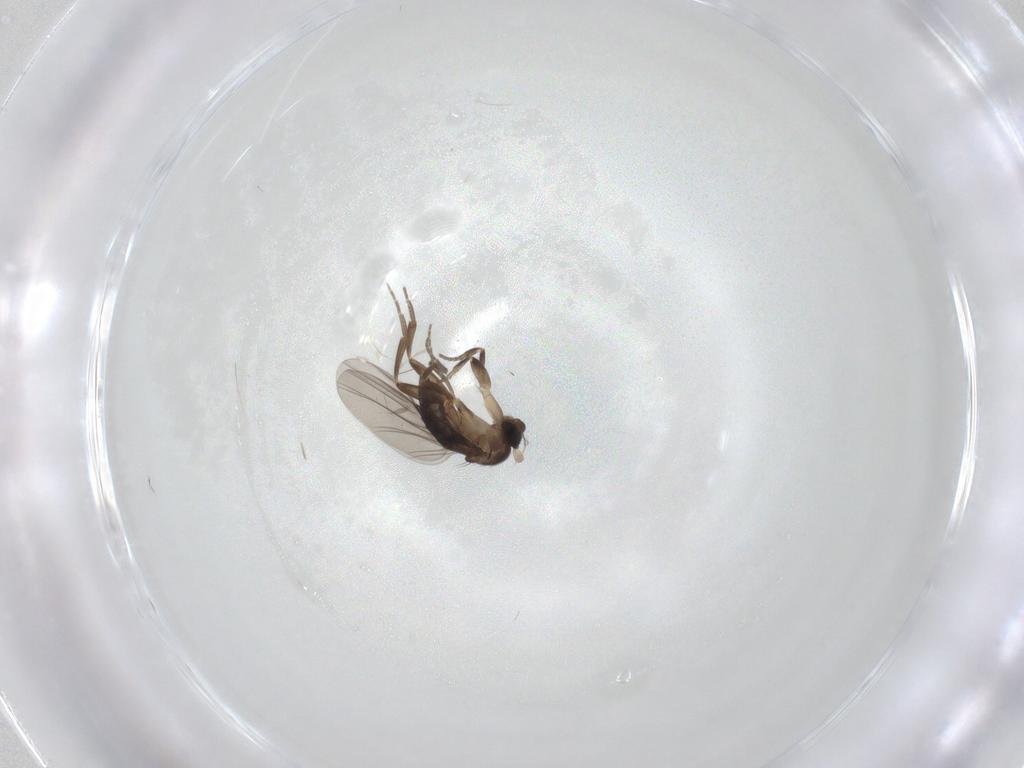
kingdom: Animalia
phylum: Arthropoda
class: Insecta
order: Diptera
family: Phoridae
